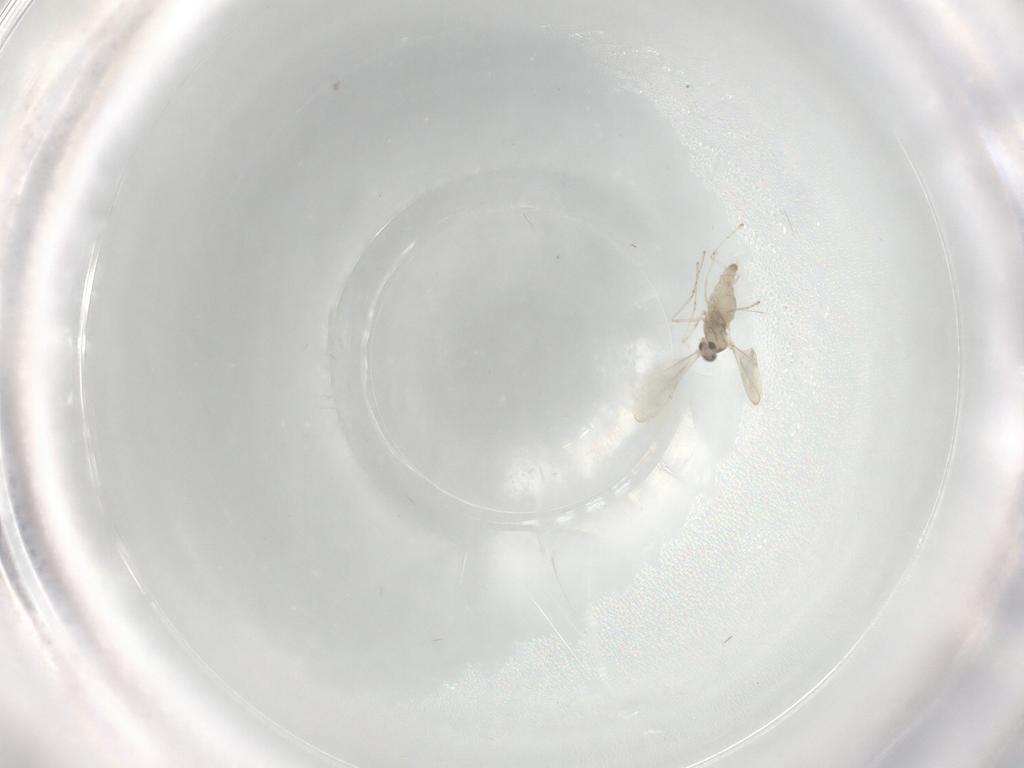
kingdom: Animalia
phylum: Arthropoda
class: Insecta
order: Diptera
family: Cecidomyiidae
